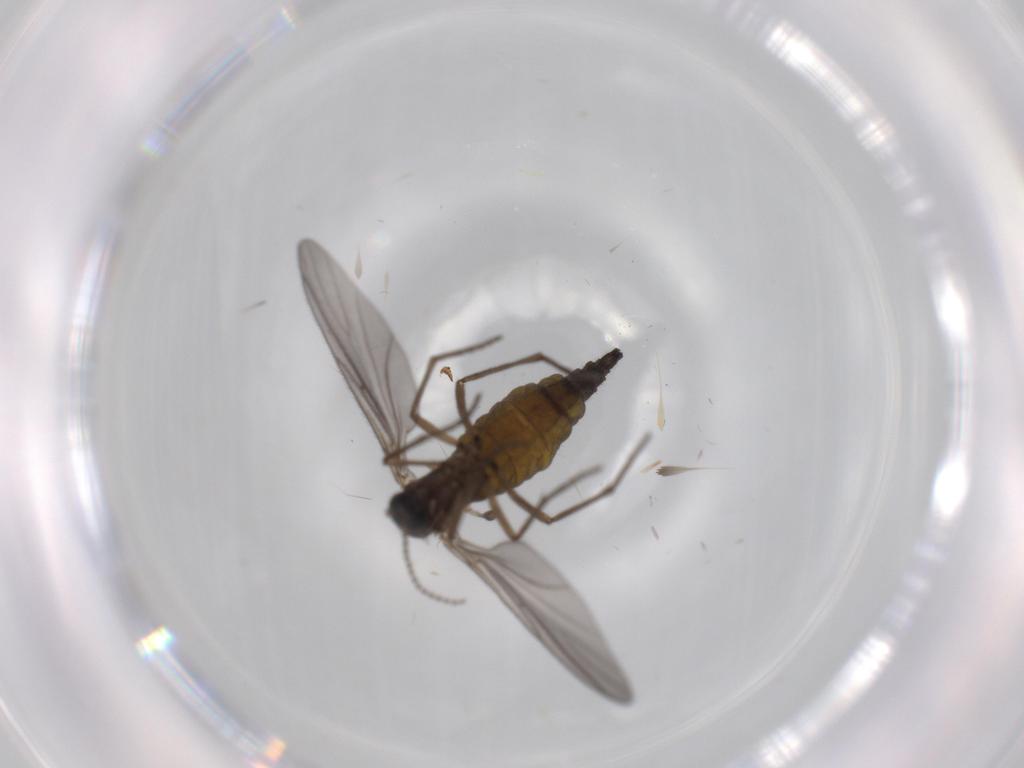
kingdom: Animalia
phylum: Arthropoda
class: Insecta
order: Diptera
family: Sciaridae
